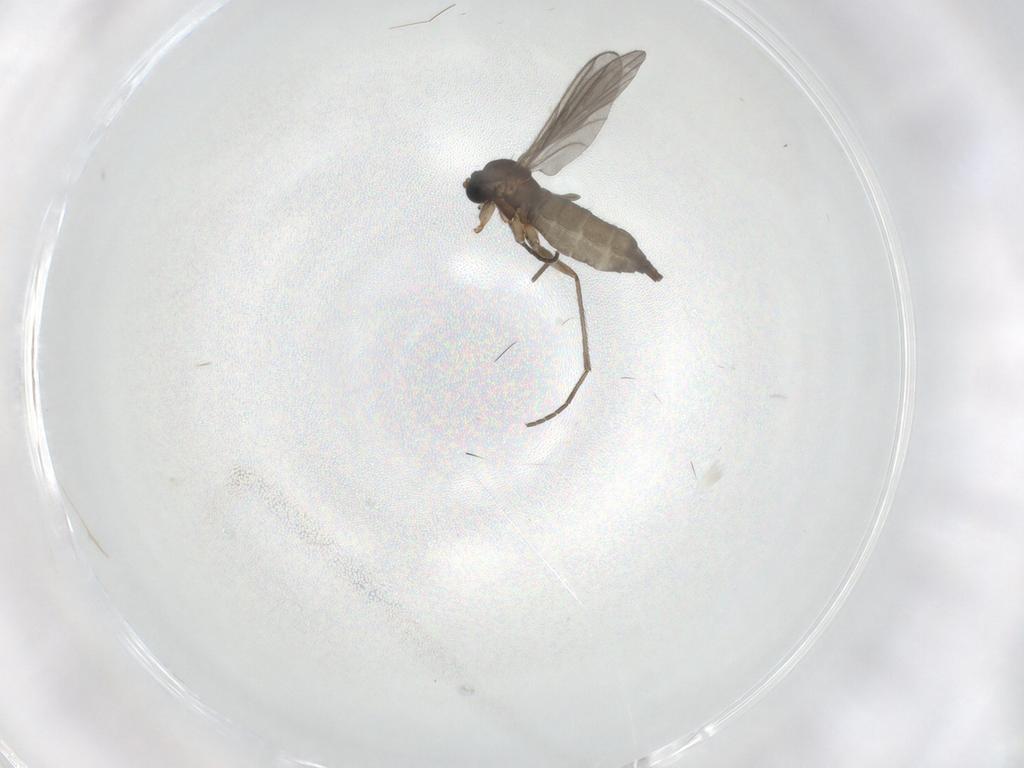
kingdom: Animalia
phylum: Arthropoda
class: Insecta
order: Diptera
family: Sciaridae
